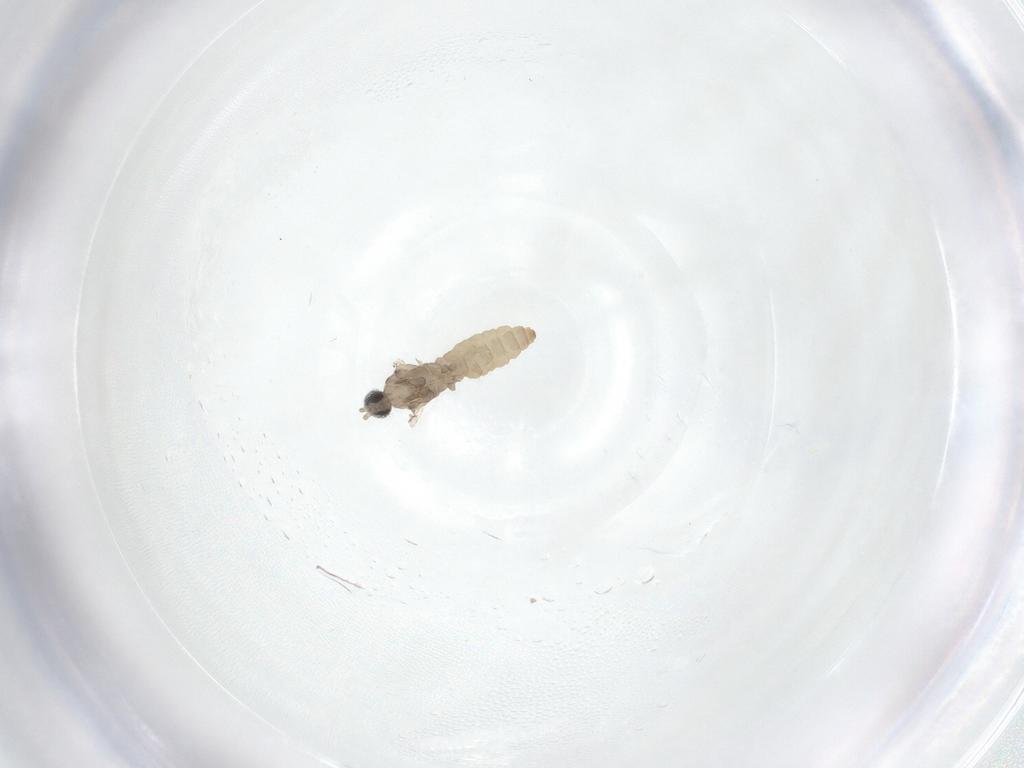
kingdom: Animalia
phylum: Arthropoda
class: Insecta
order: Diptera
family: Cecidomyiidae
